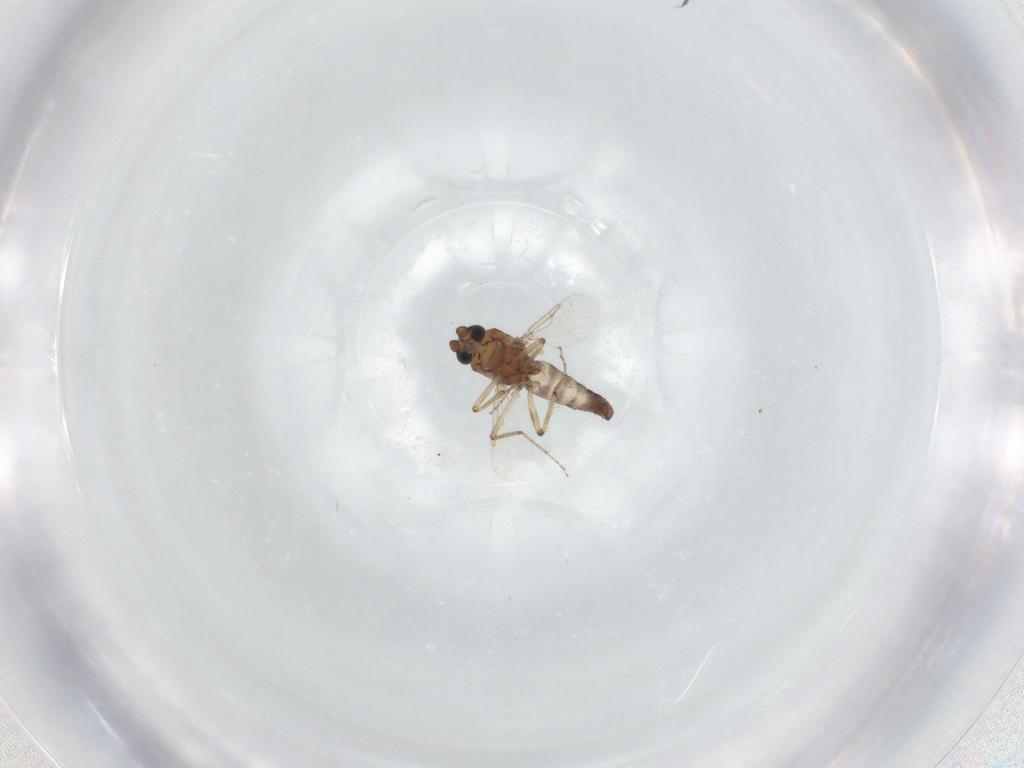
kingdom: Animalia
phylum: Arthropoda
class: Insecta
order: Diptera
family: Ceratopogonidae
